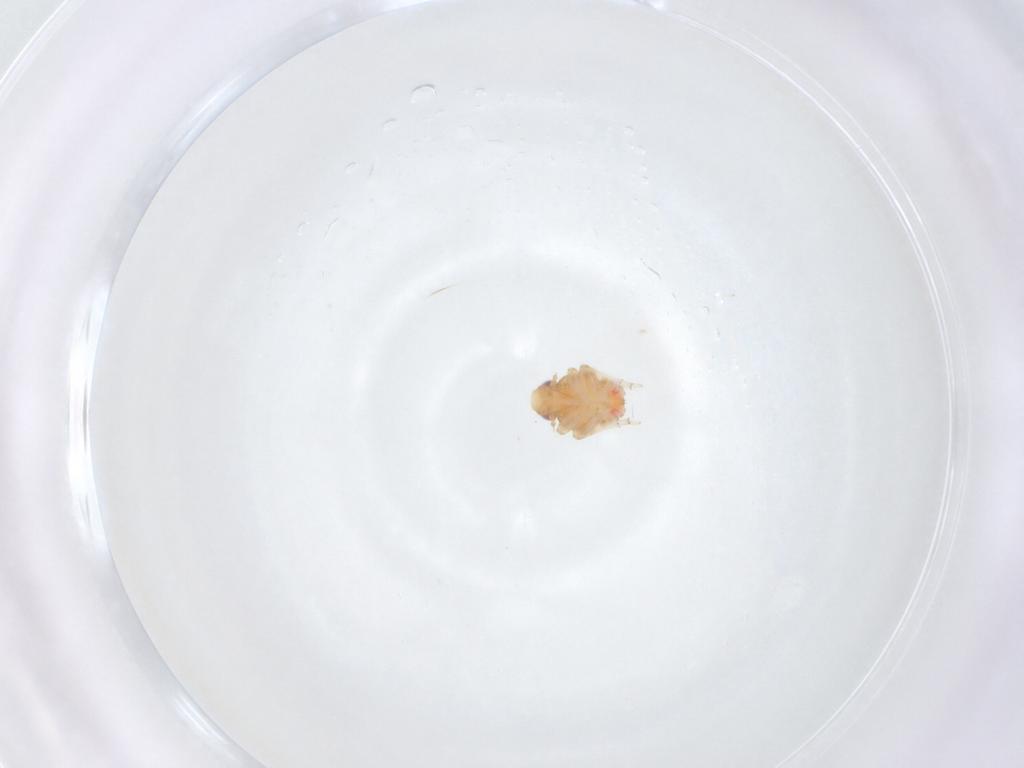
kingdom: Animalia
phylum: Arthropoda
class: Insecta
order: Hemiptera
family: Issidae
